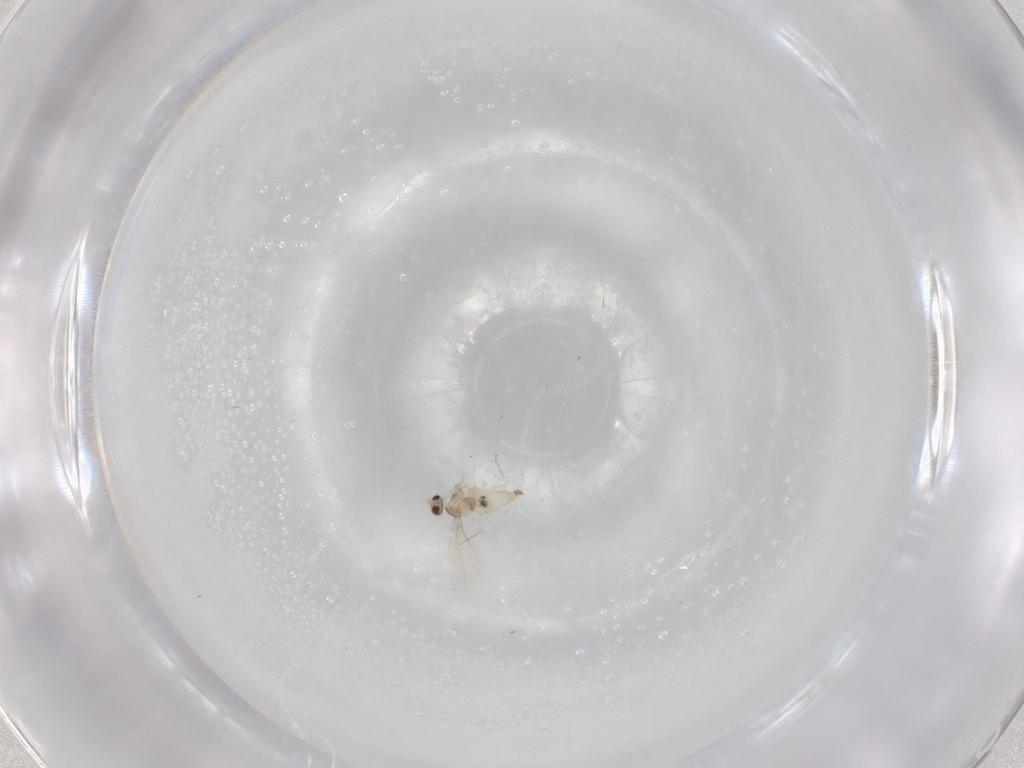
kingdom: Animalia
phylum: Arthropoda
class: Insecta
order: Diptera
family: Cecidomyiidae
